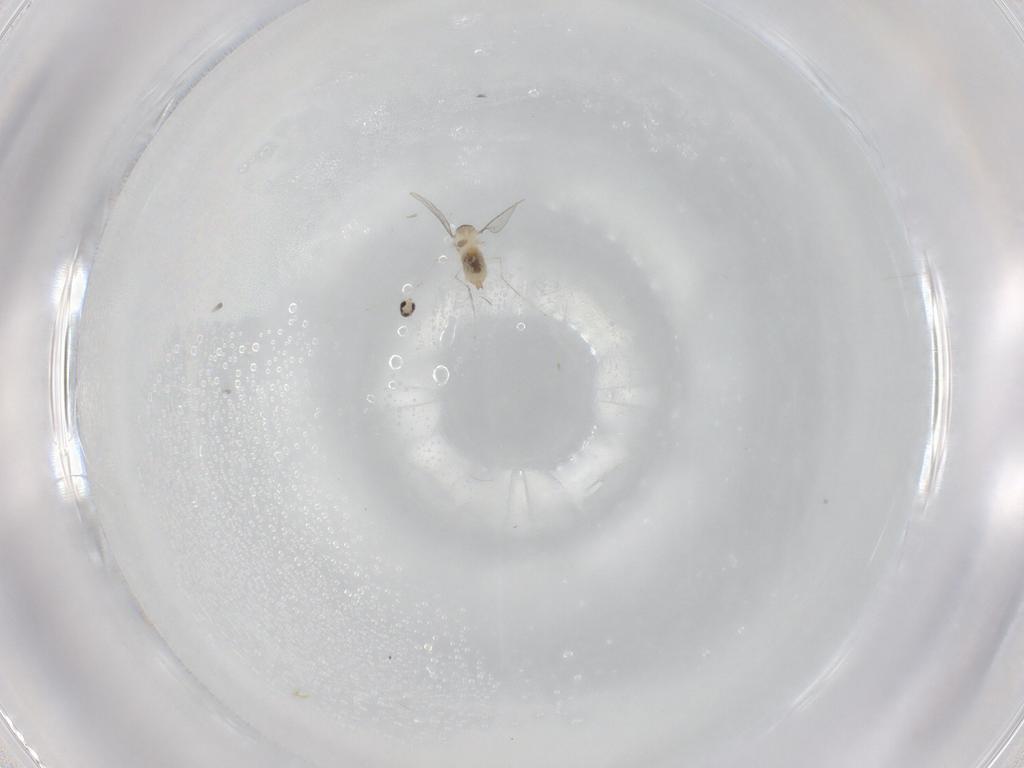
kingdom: Animalia
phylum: Arthropoda
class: Insecta
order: Diptera
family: Cecidomyiidae
